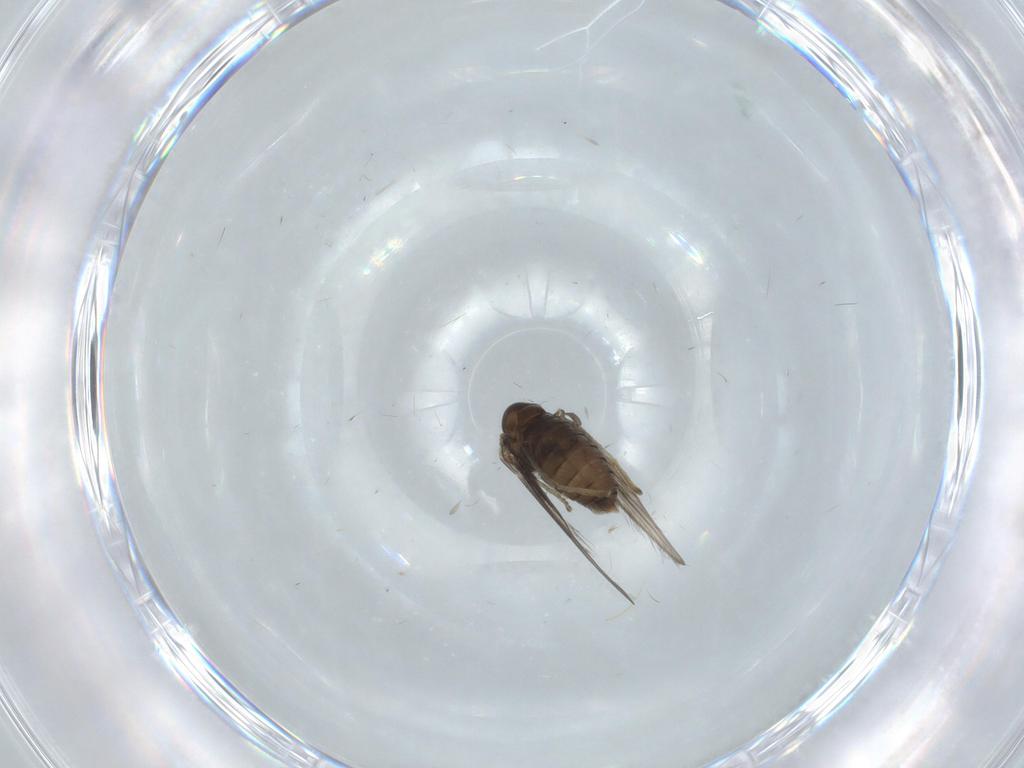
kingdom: Animalia
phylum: Arthropoda
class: Insecta
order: Diptera
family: Psychodidae
